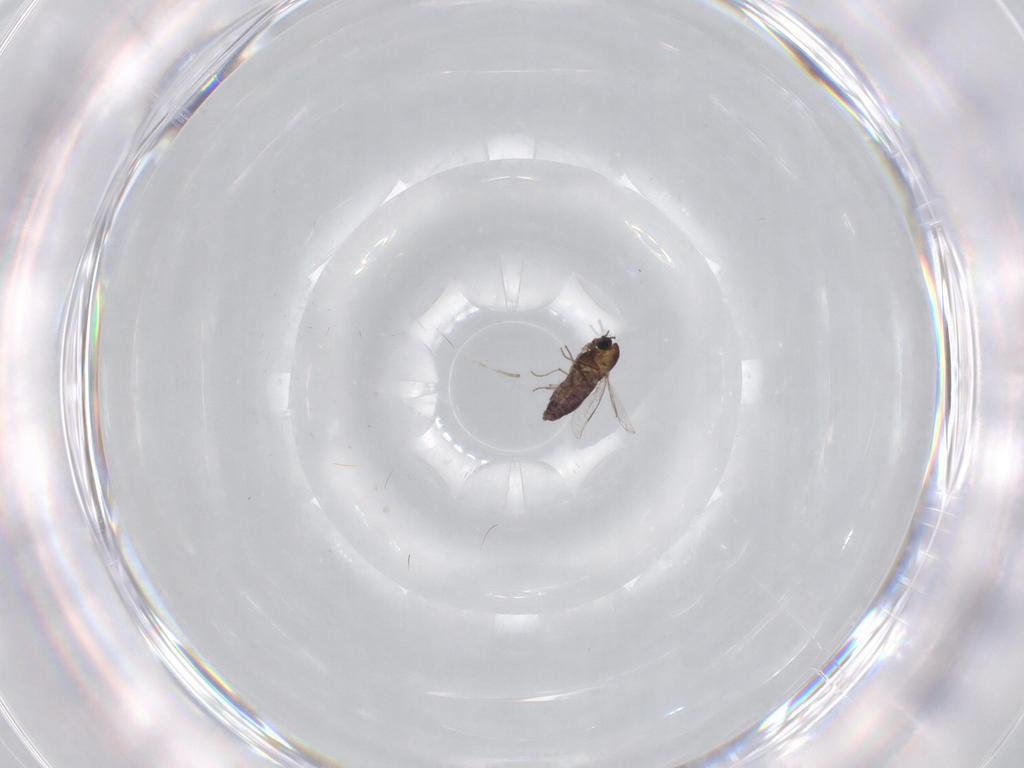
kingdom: Animalia
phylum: Arthropoda
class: Insecta
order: Diptera
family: Chironomidae
